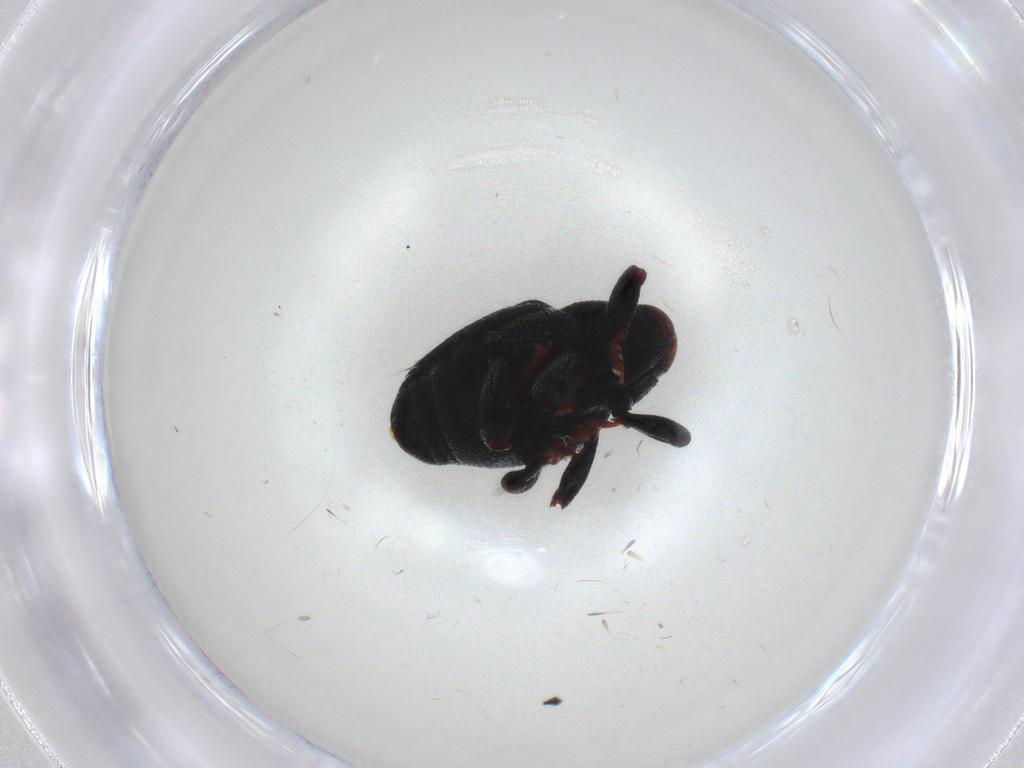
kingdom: Animalia
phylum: Arthropoda
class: Insecta
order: Coleoptera
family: Curculionidae
